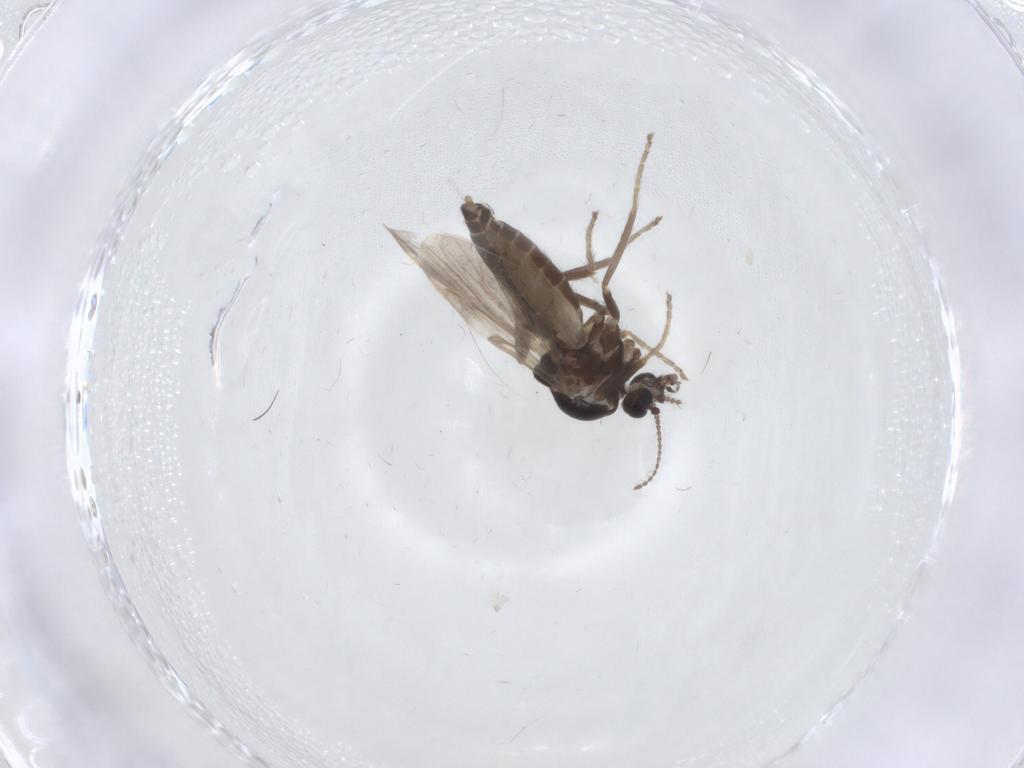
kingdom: Animalia
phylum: Arthropoda
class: Insecta
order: Diptera
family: Ceratopogonidae
